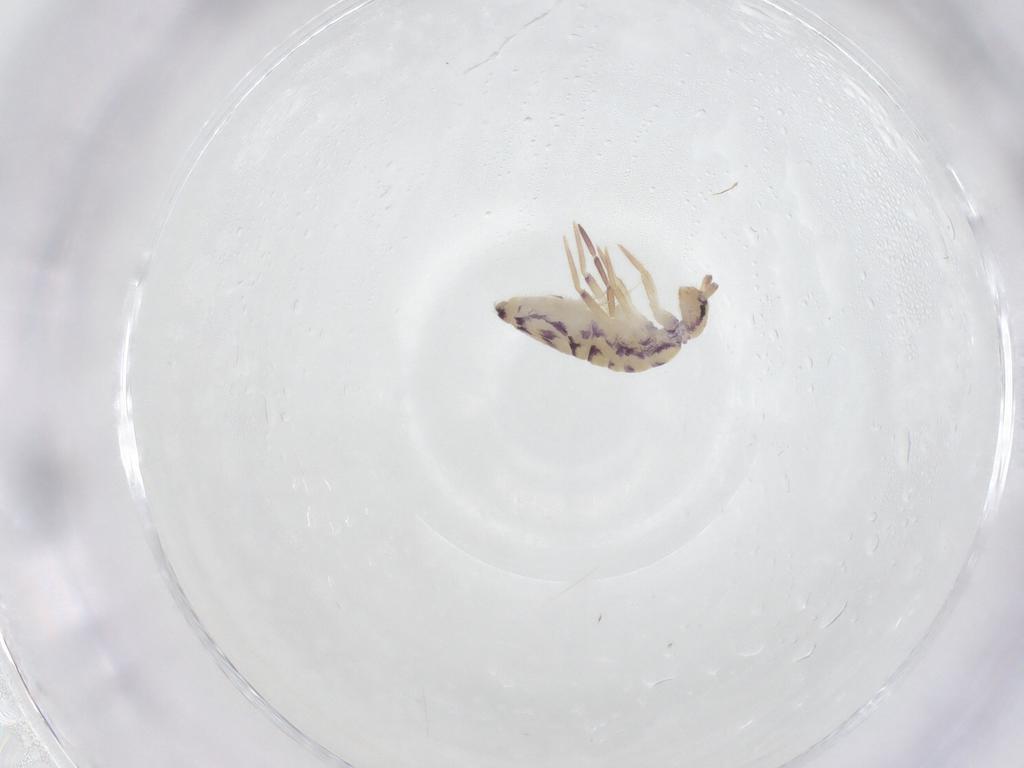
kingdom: Animalia
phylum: Arthropoda
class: Collembola
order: Entomobryomorpha
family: Entomobryidae
